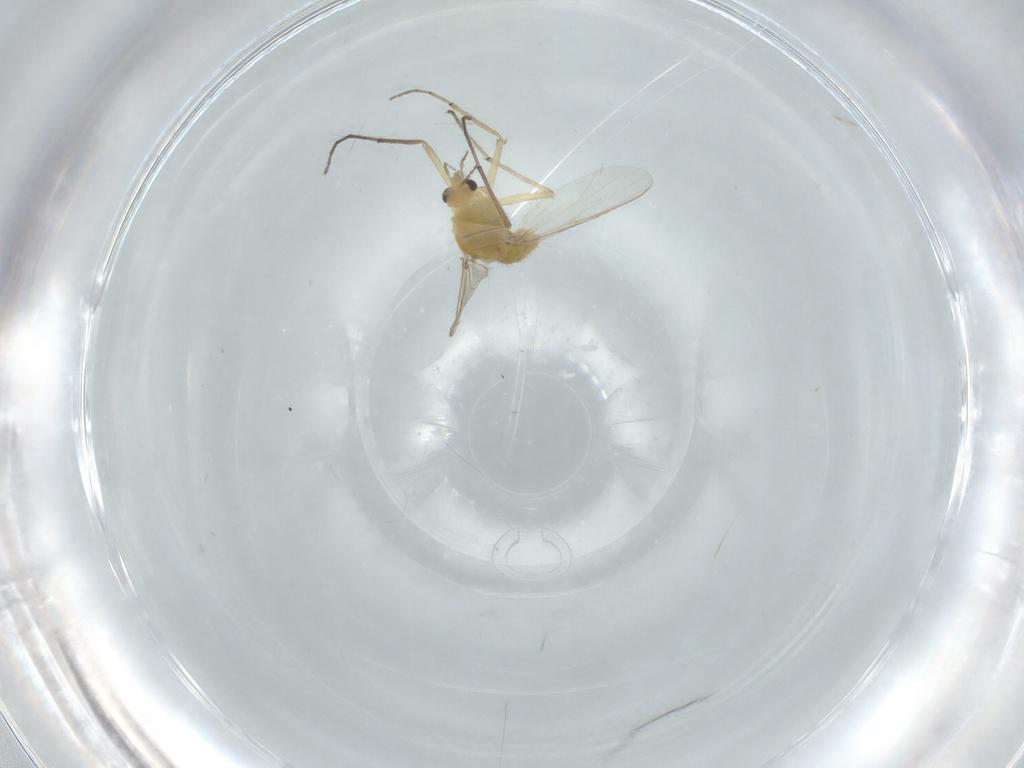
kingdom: Animalia
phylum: Arthropoda
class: Insecta
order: Diptera
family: Chironomidae
